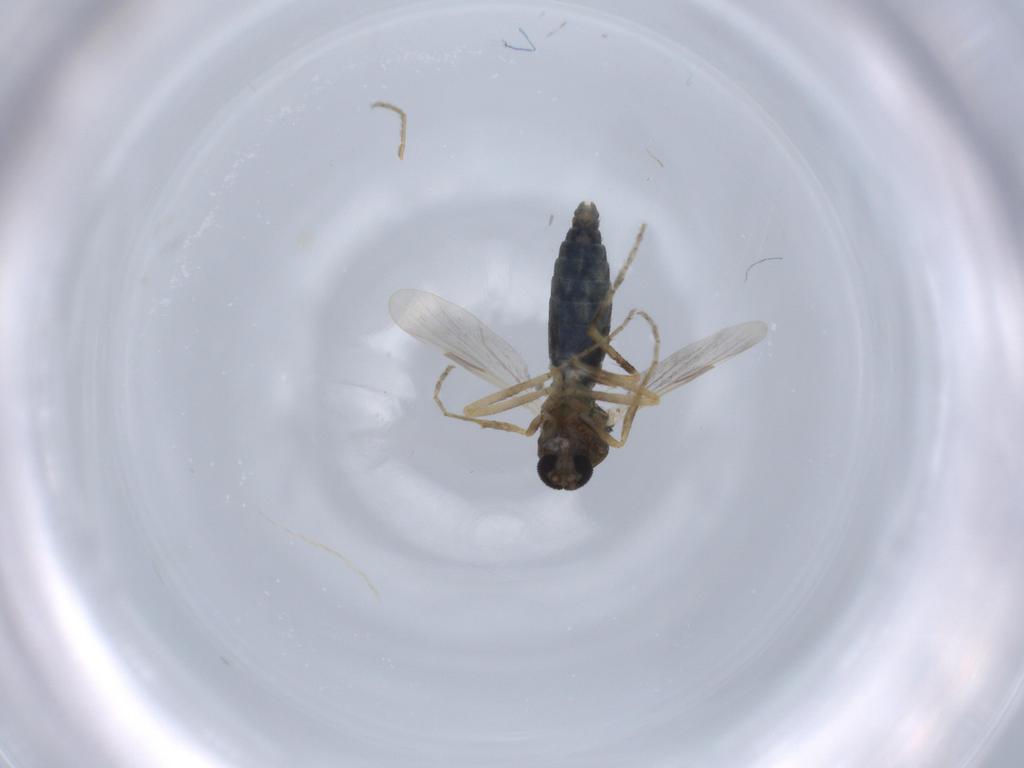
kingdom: Animalia
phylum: Arthropoda
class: Insecta
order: Diptera
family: Ceratopogonidae
